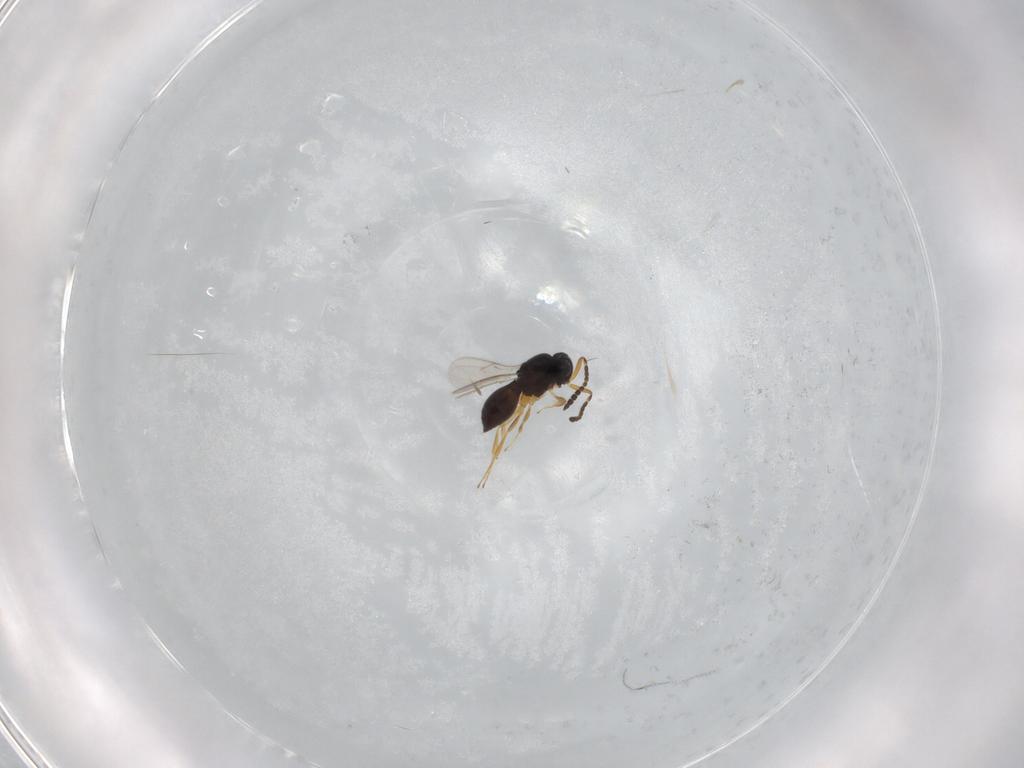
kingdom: Animalia
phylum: Arthropoda
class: Insecta
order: Hymenoptera
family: Scelionidae
